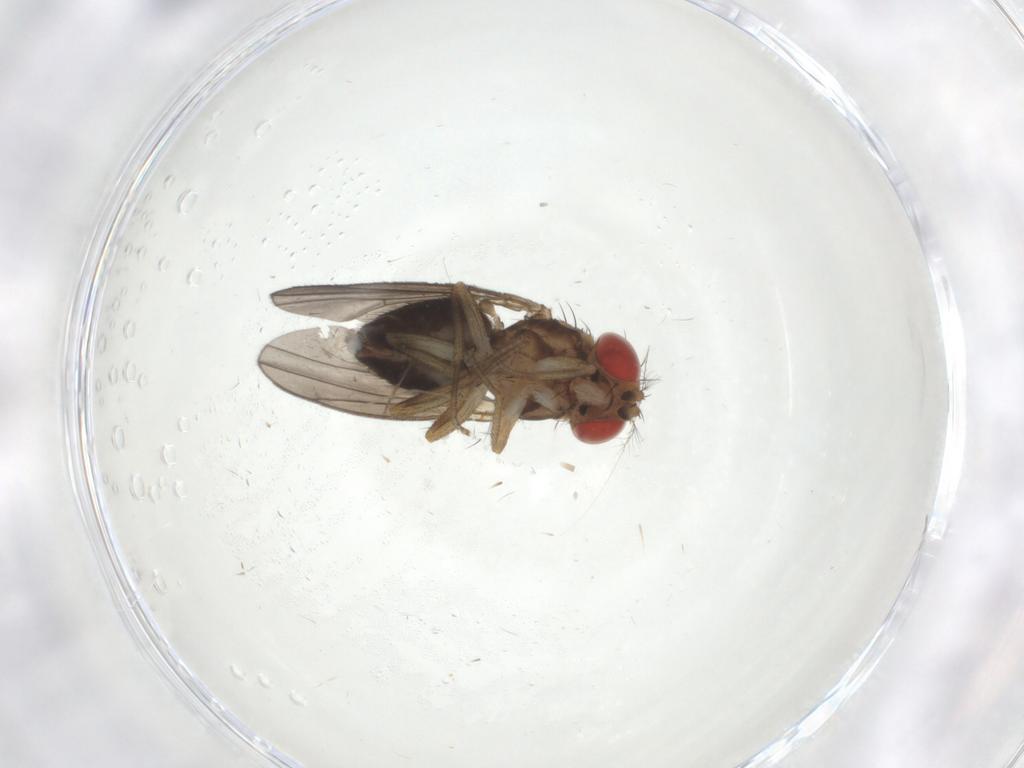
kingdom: Animalia
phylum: Arthropoda
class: Insecta
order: Diptera
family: Drosophilidae
